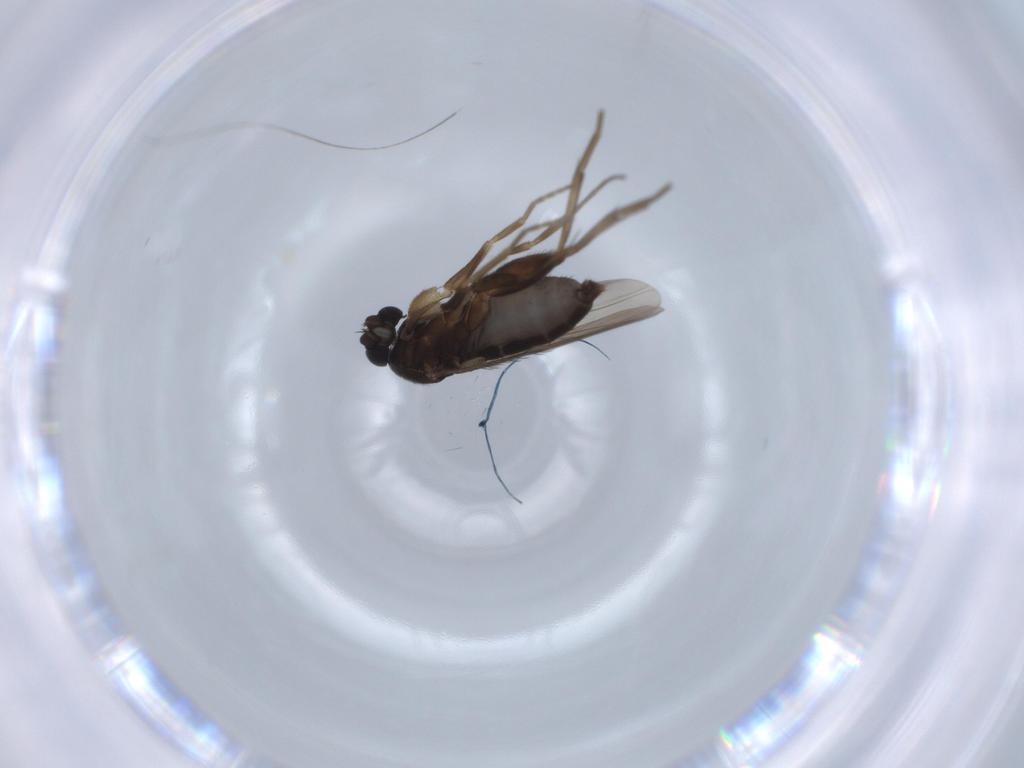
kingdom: Animalia
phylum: Arthropoda
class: Insecta
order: Diptera
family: Phoridae
